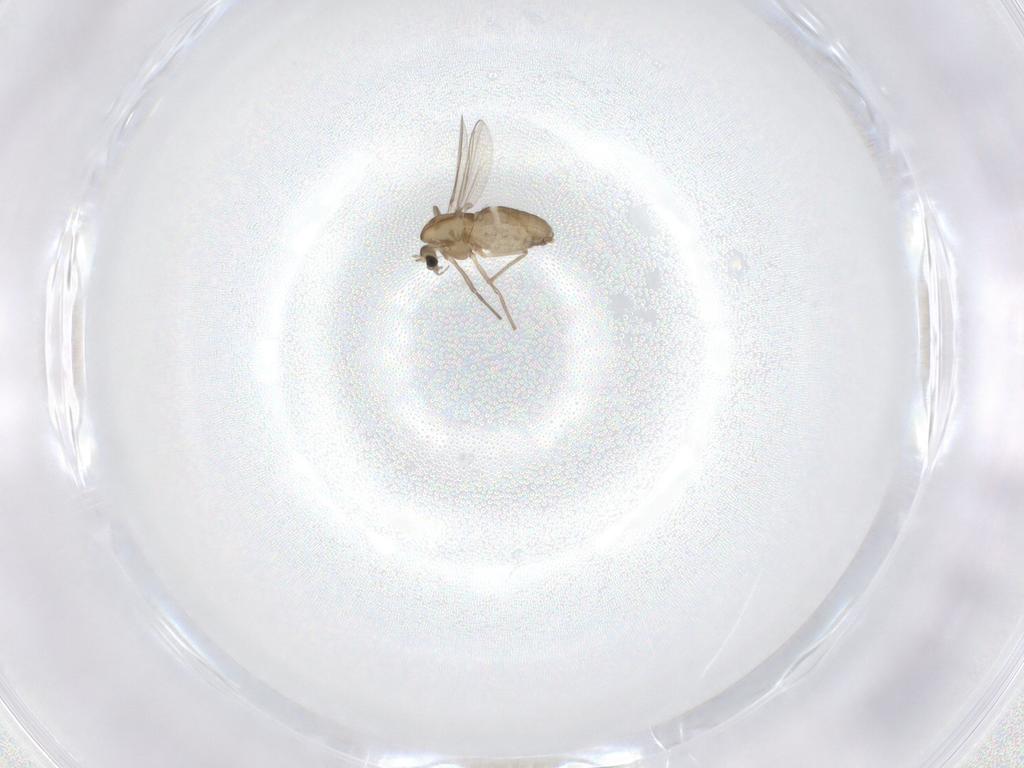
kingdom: Animalia
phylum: Arthropoda
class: Insecta
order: Diptera
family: Chironomidae
